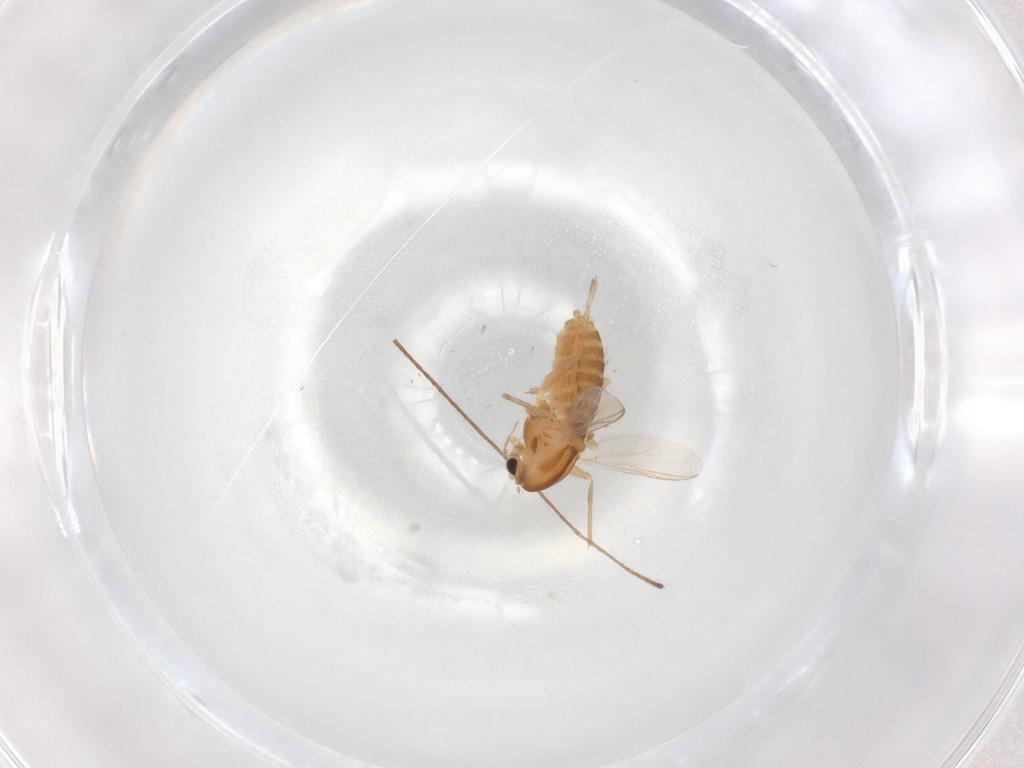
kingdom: Animalia
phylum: Arthropoda
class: Insecta
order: Diptera
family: Chironomidae
